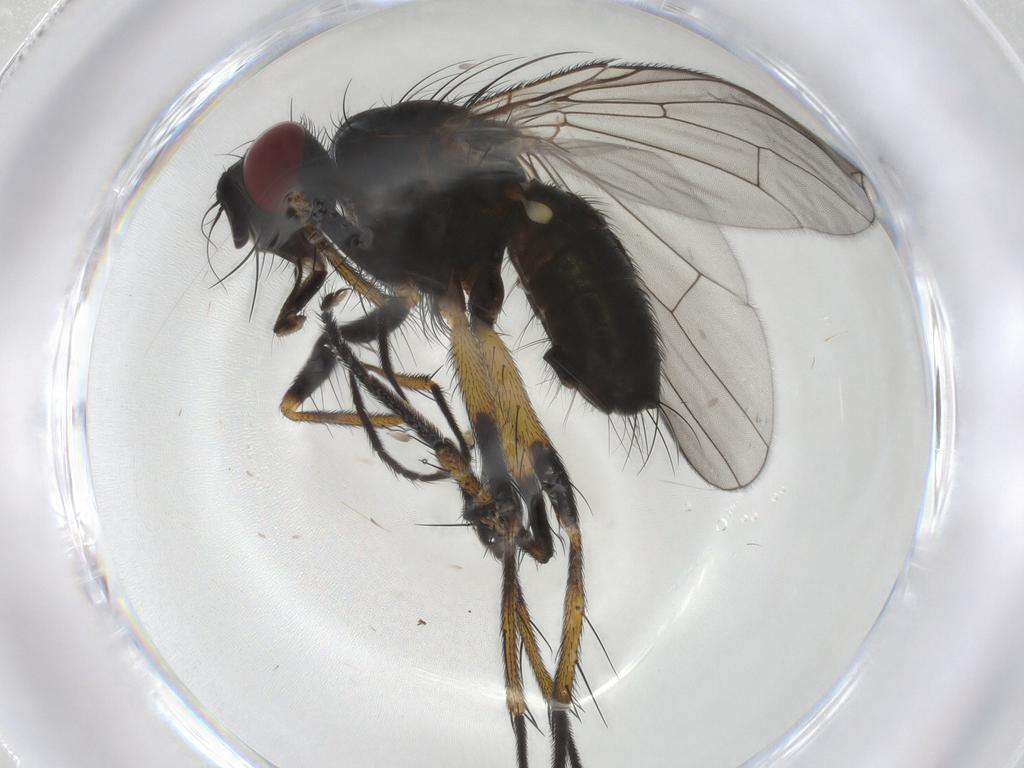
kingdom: Animalia
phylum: Arthropoda
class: Insecta
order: Diptera
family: Muscidae
